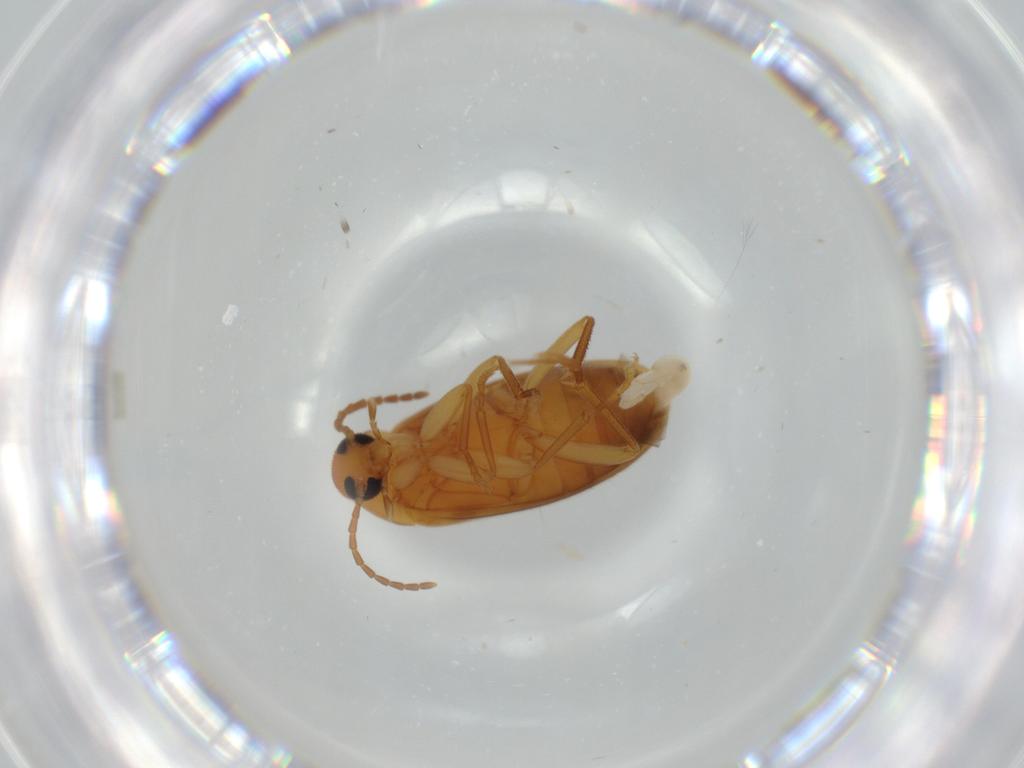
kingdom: Animalia
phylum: Arthropoda
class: Insecta
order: Coleoptera
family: Scraptiidae
